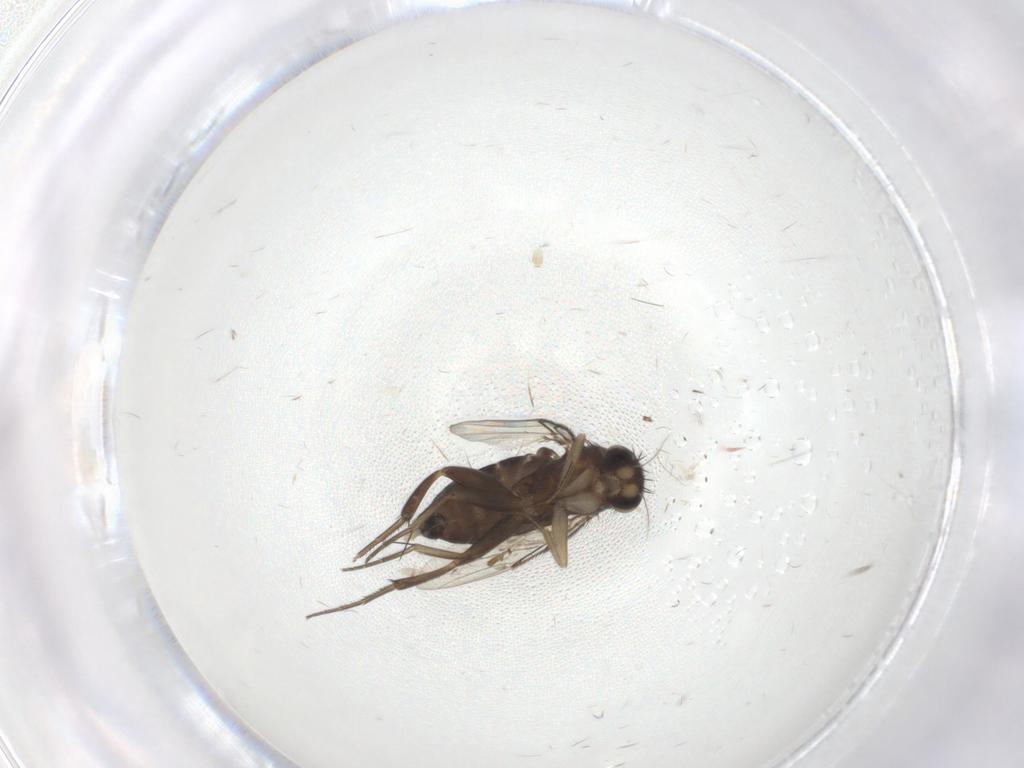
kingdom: Animalia
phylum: Arthropoda
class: Insecta
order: Diptera
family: Phoridae
